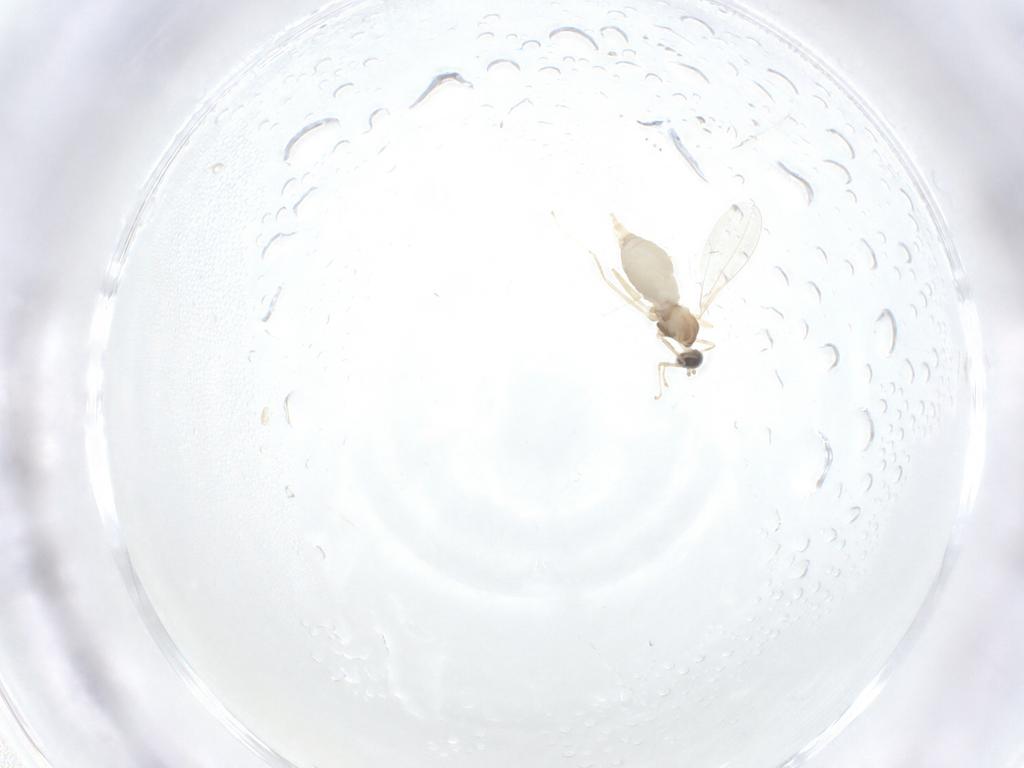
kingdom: Animalia
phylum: Arthropoda
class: Insecta
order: Diptera
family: Cecidomyiidae
